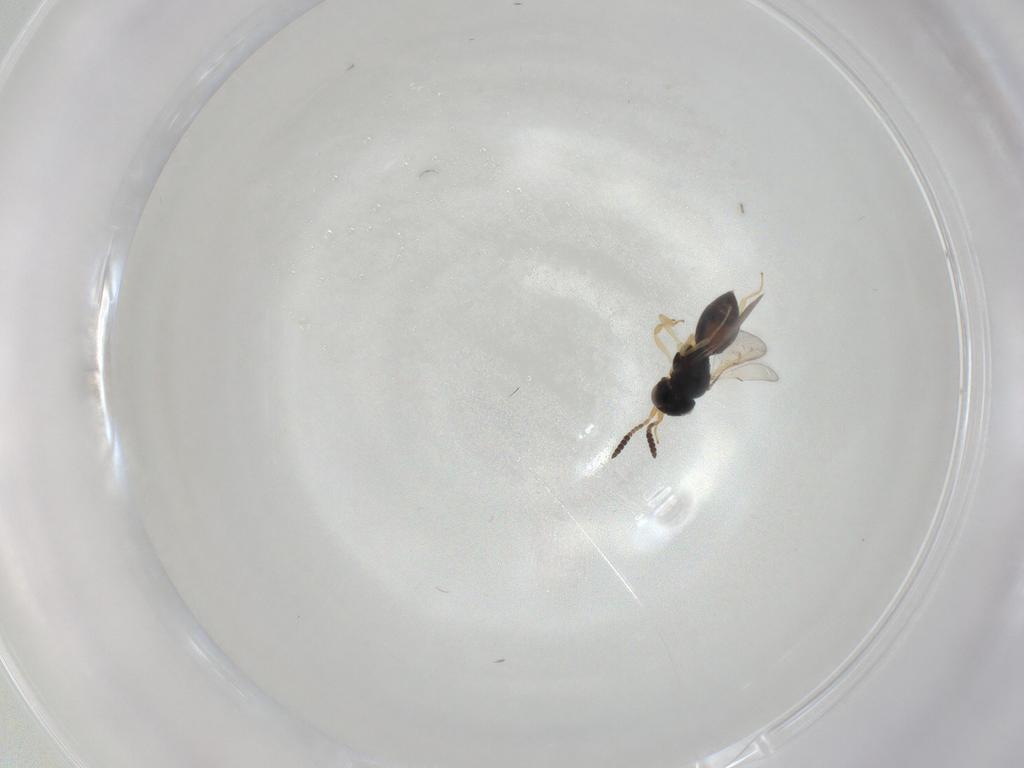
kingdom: Animalia
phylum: Arthropoda
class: Insecta
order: Hymenoptera
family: Scelionidae
